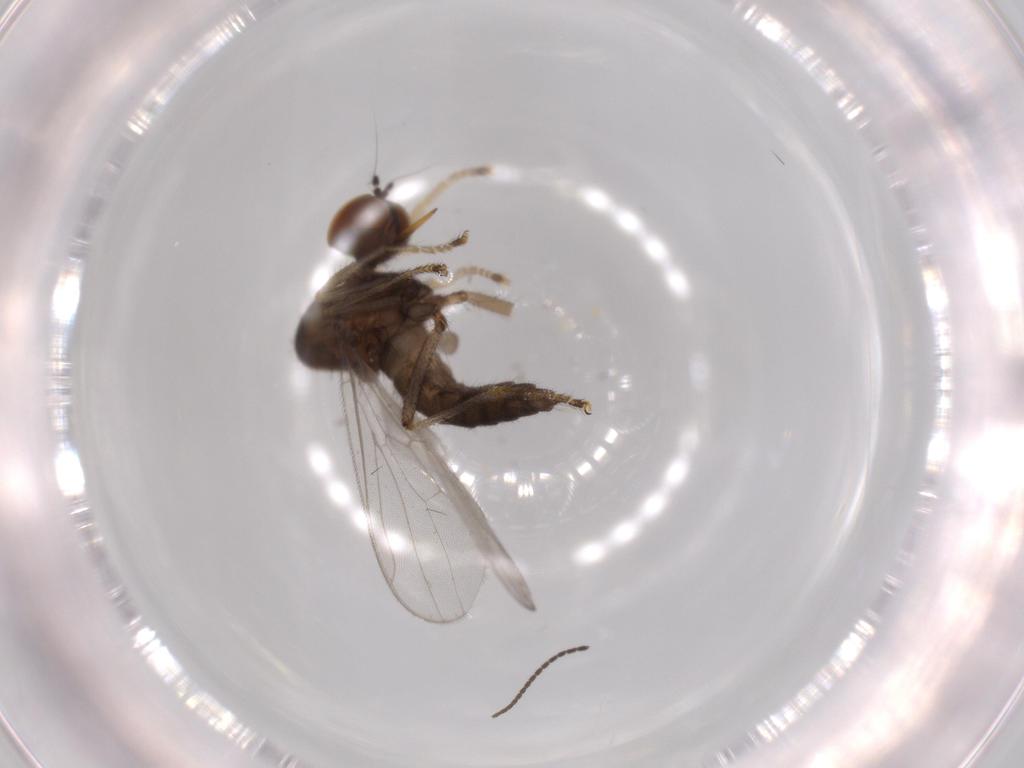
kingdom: Animalia
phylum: Arthropoda
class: Insecta
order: Diptera
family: Hybotidae
